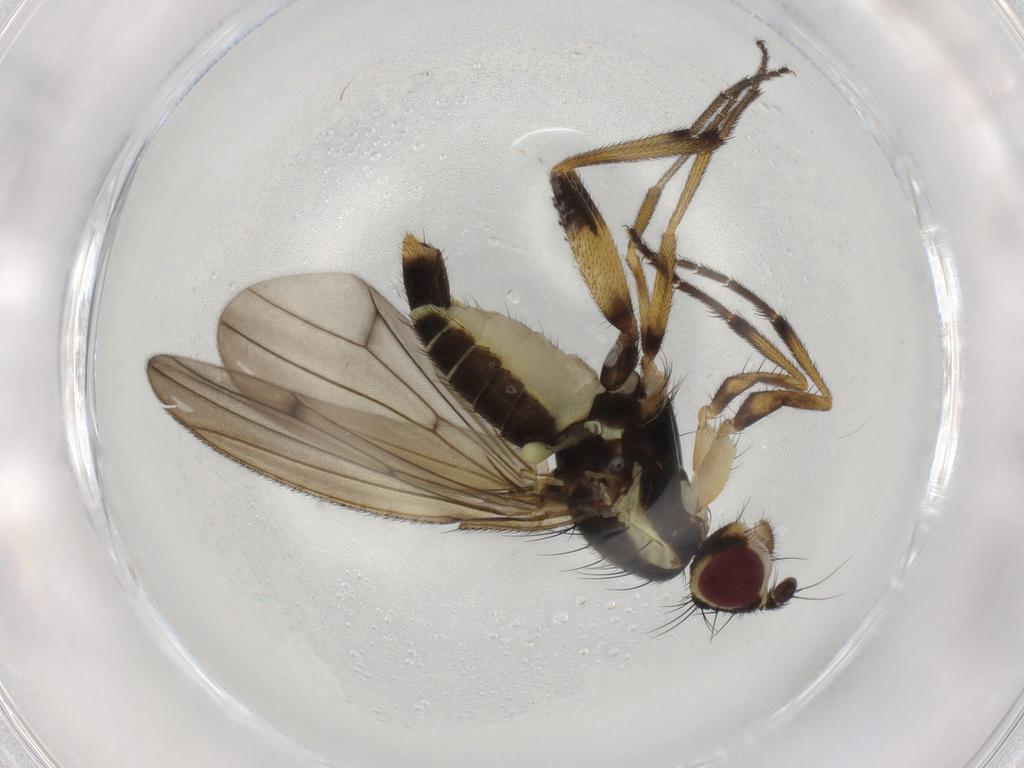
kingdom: Animalia
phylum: Arthropoda
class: Insecta
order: Diptera
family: Cypselosomatidae
